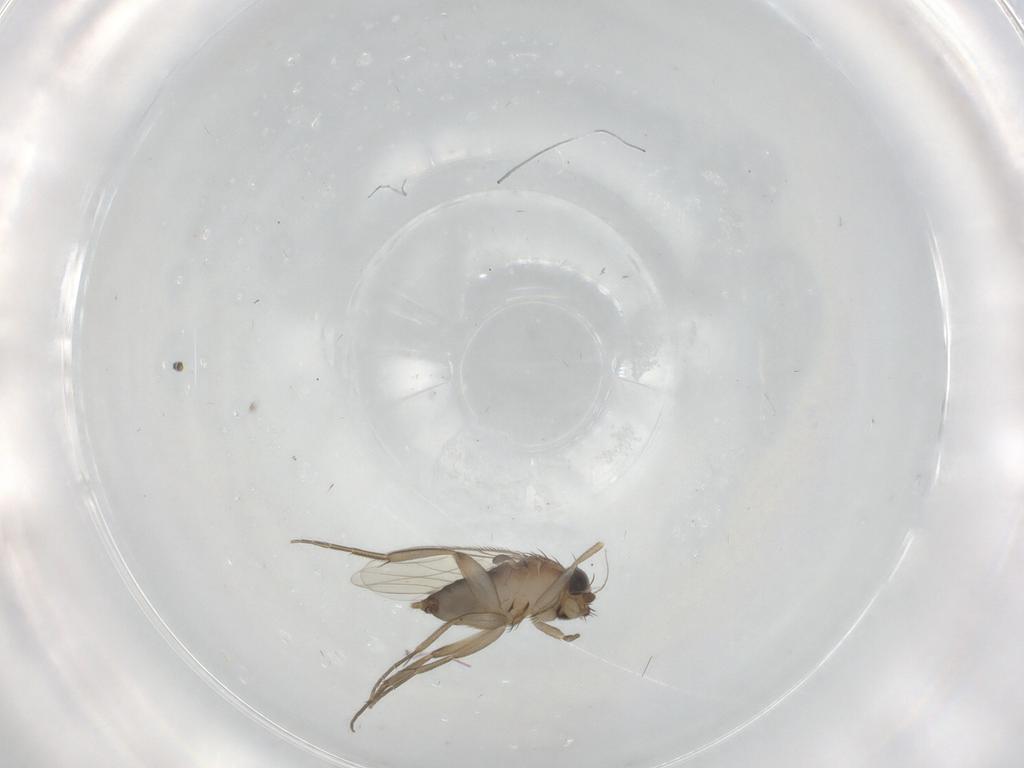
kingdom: Animalia
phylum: Arthropoda
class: Insecta
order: Diptera
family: Phoridae
